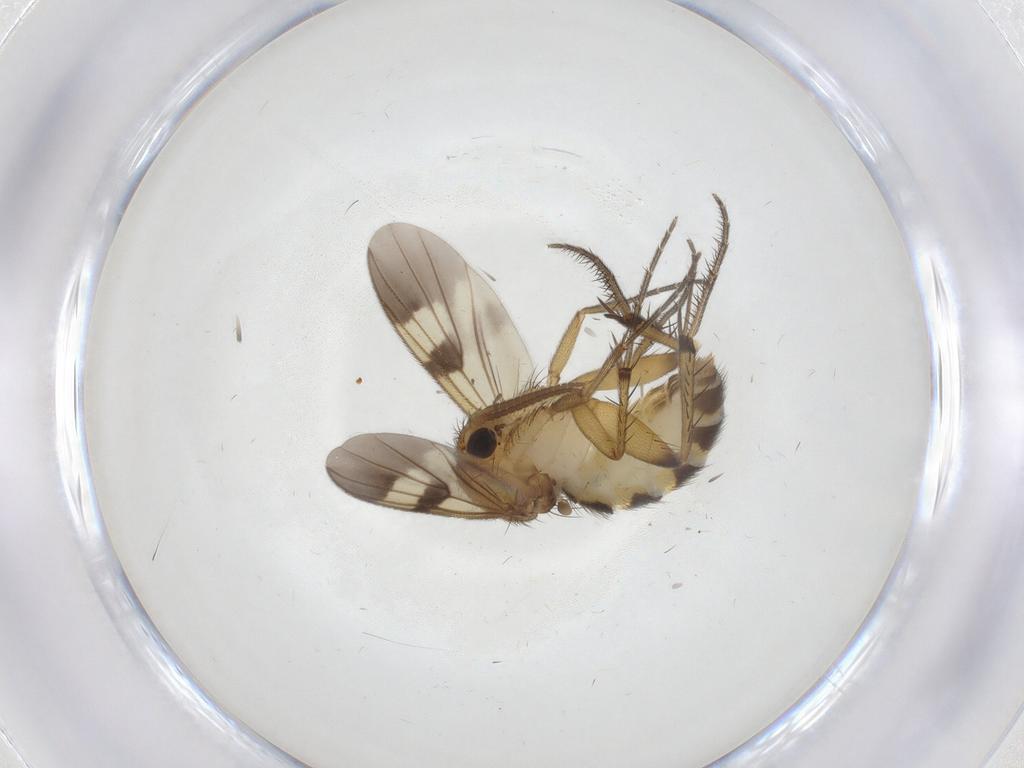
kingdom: Animalia
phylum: Arthropoda
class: Insecta
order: Diptera
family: Mycetophilidae
